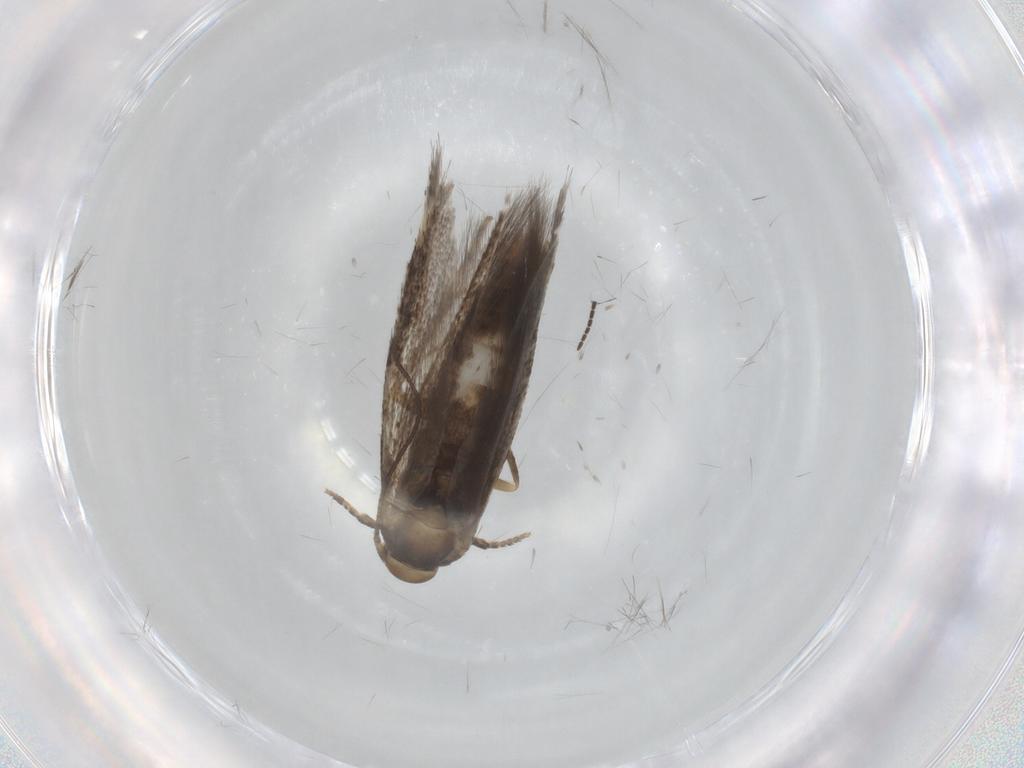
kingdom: Animalia
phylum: Arthropoda
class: Insecta
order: Lepidoptera
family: Elachistidae
